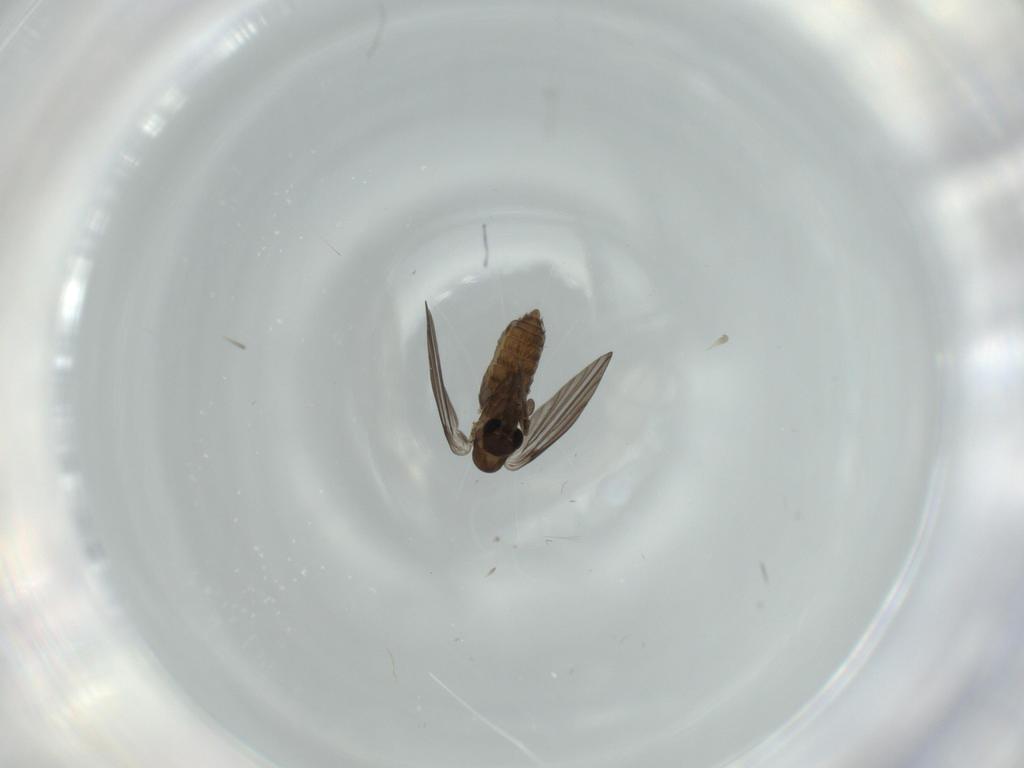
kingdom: Animalia
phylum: Arthropoda
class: Insecta
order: Diptera
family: Psychodidae
